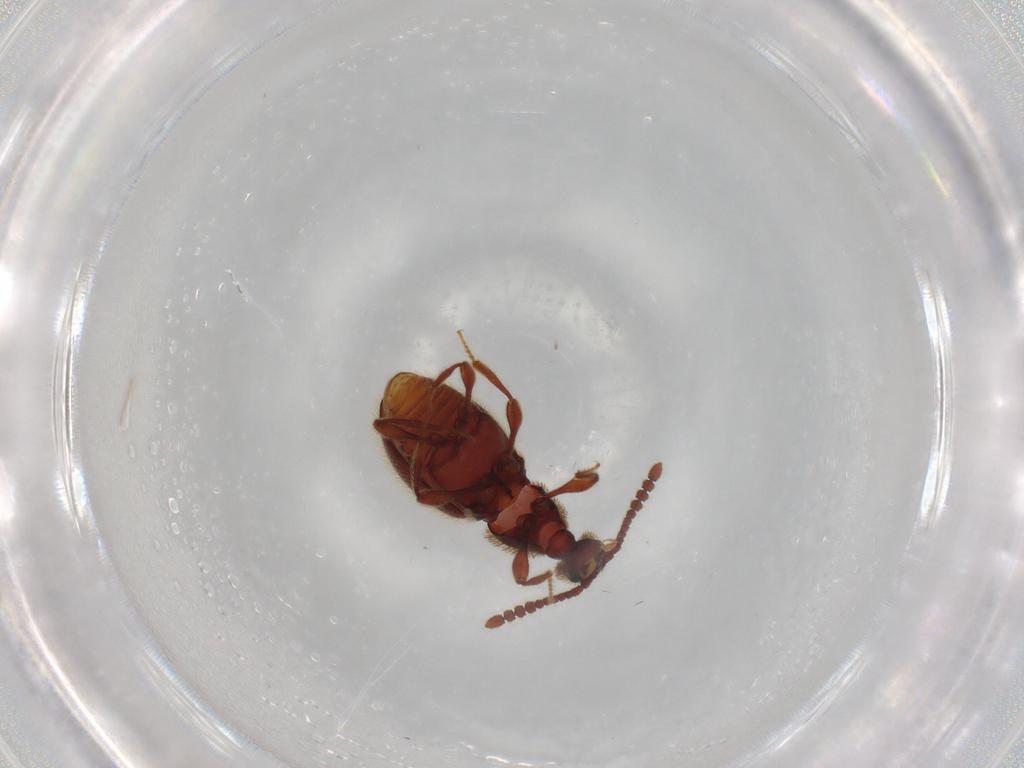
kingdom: Animalia
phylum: Arthropoda
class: Insecta
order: Coleoptera
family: Staphylinidae
